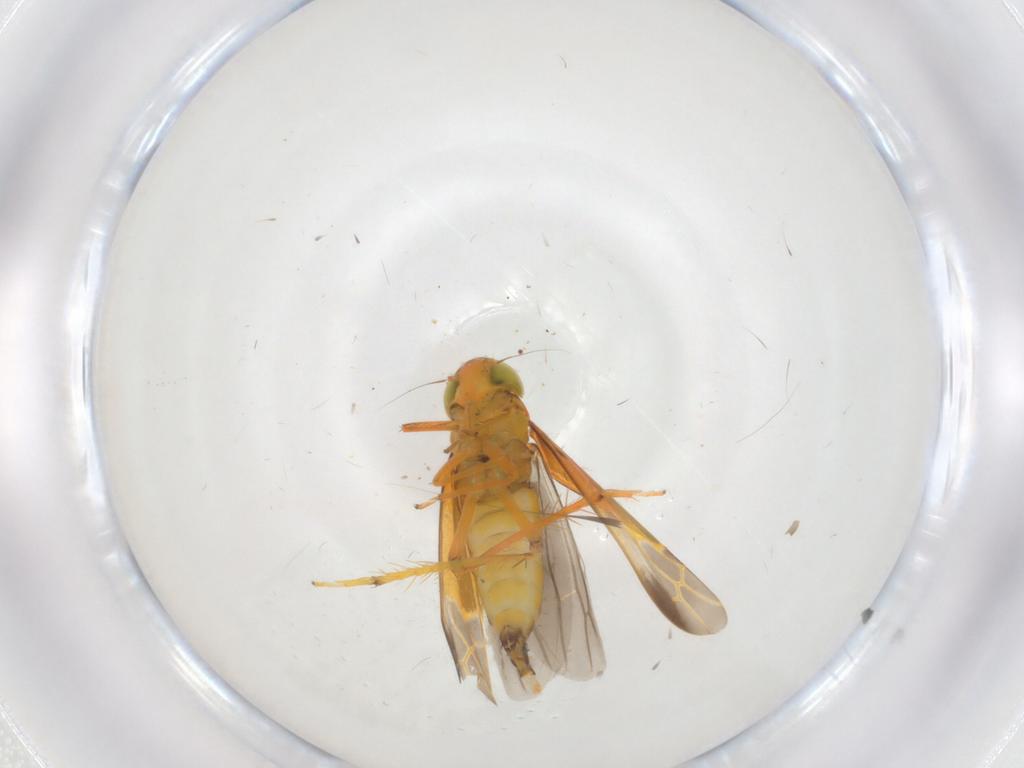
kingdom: Animalia
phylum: Arthropoda
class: Insecta
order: Hemiptera
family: Cicadellidae
